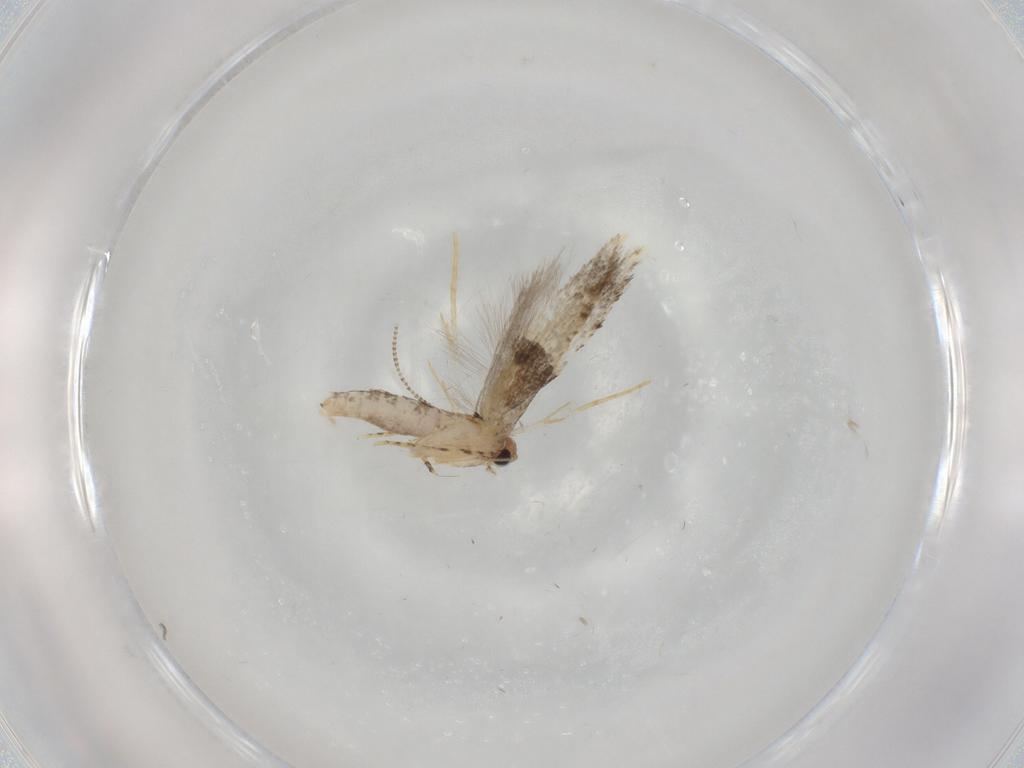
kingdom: Animalia
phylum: Arthropoda
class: Insecta
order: Lepidoptera
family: Tineidae
